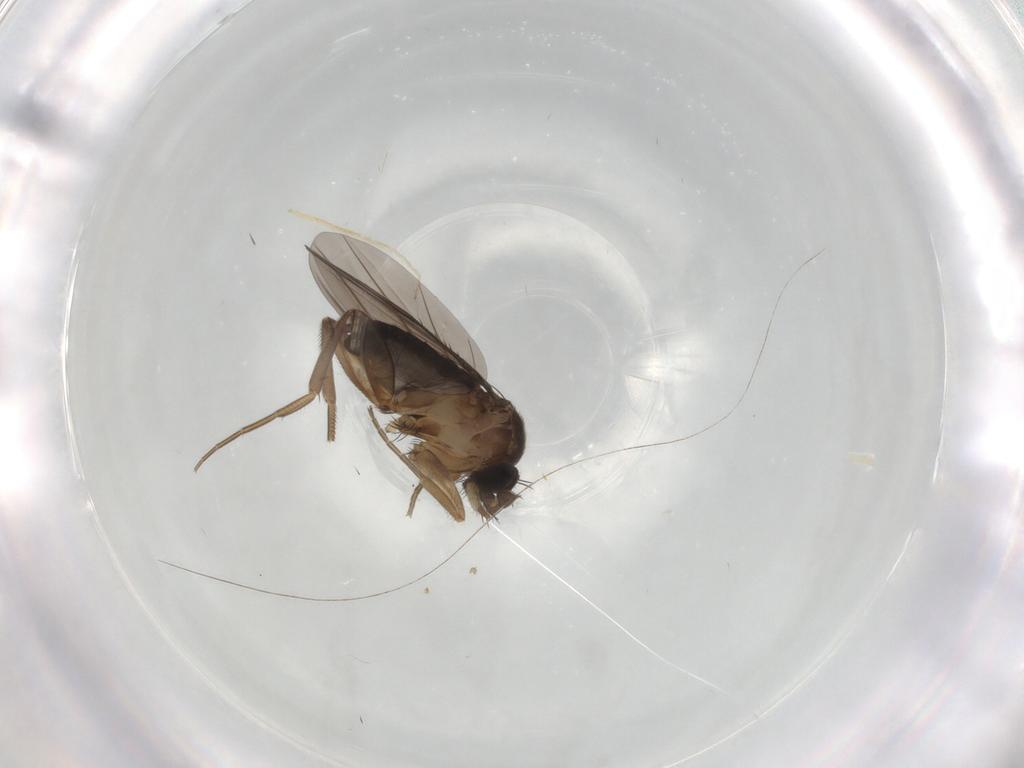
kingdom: Animalia
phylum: Arthropoda
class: Insecta
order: Diptera
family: Phoridae
